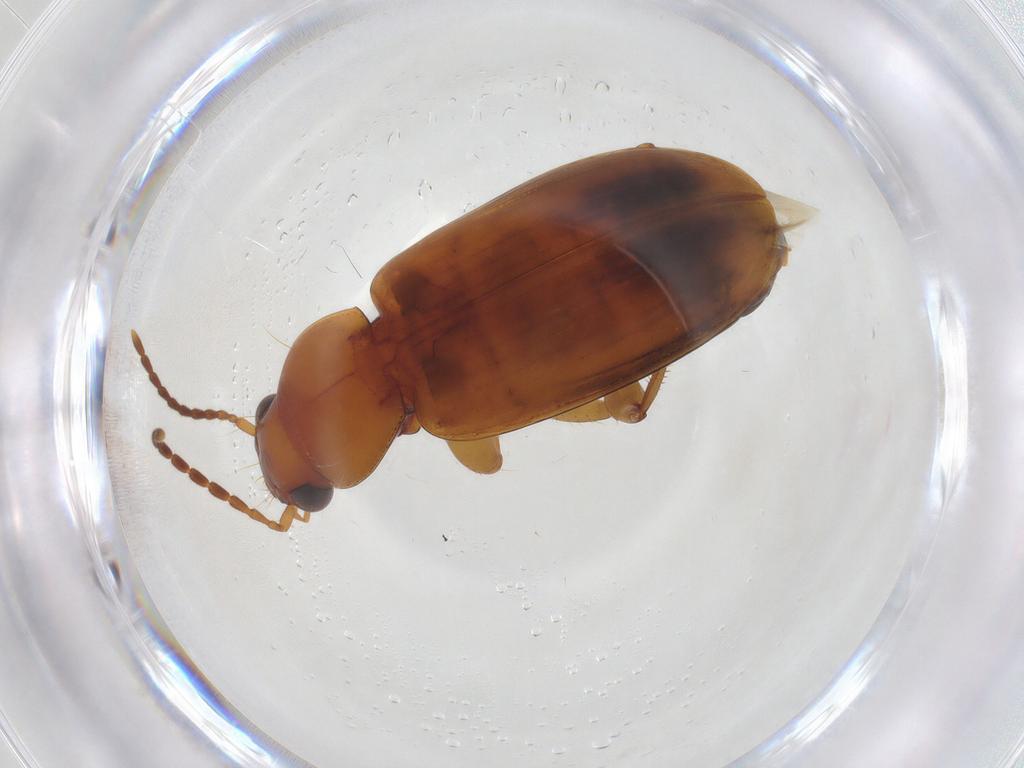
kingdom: Animalia
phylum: Arthropoda
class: Insecta
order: Coleoptera
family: Carabidae
